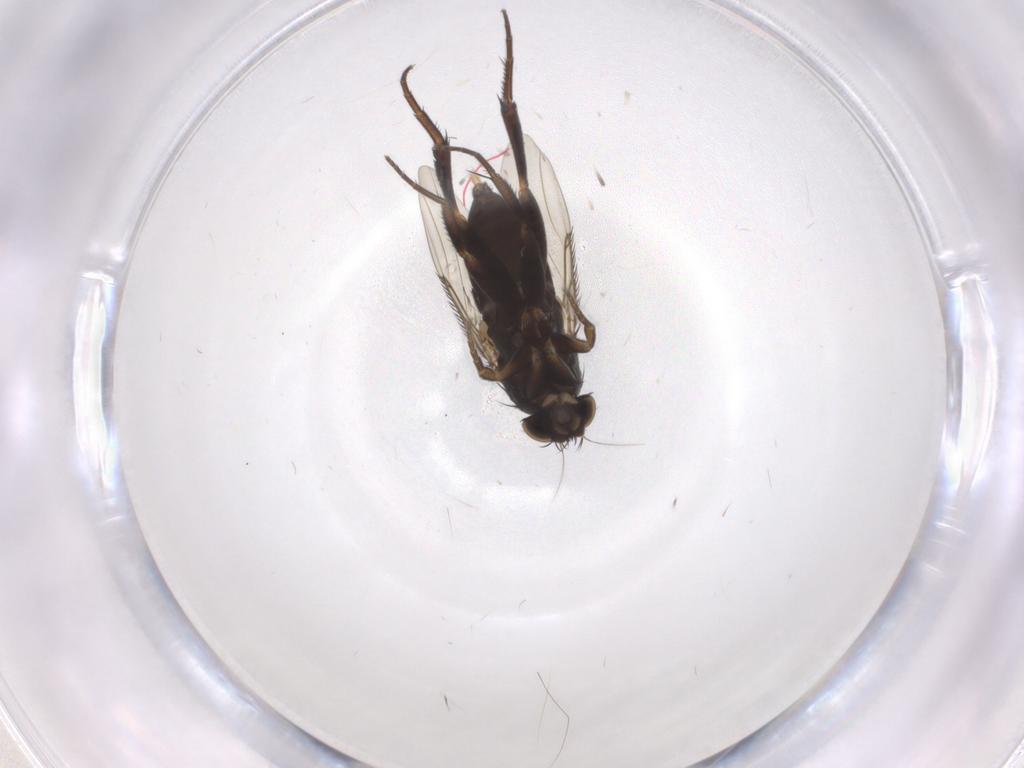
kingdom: Animalia
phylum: Arthropoda
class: Insecta
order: Diptera
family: Phoridae
